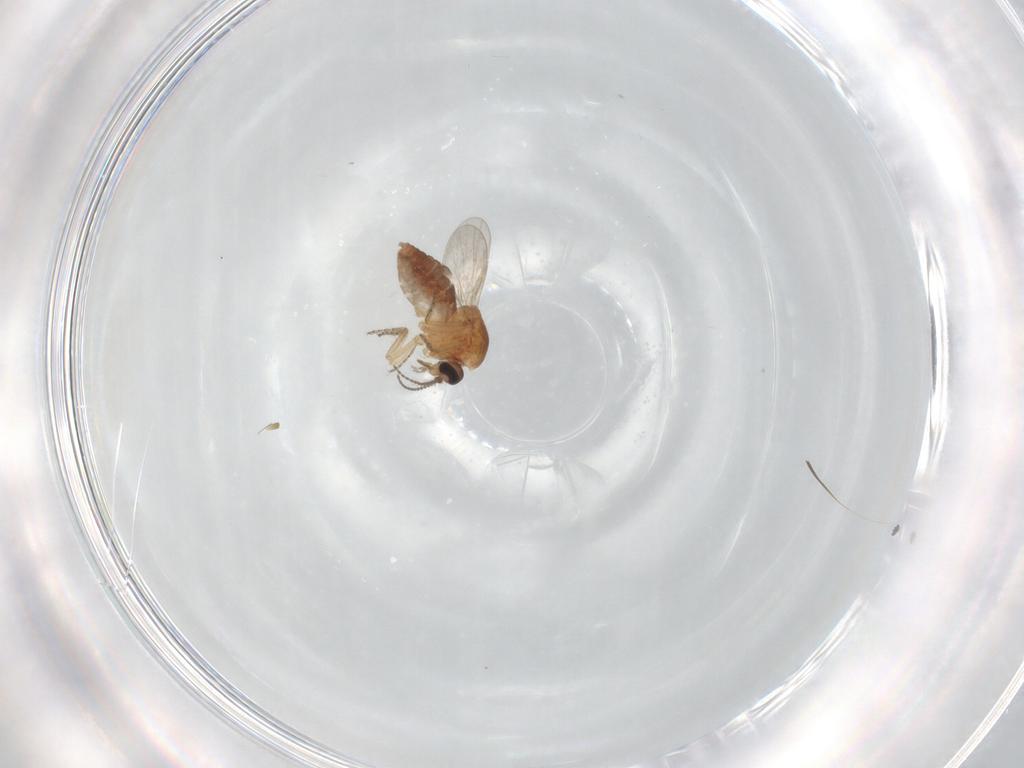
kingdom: Animalia
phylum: Arthropoda
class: Insecta
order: Diptera
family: Ceratopogonidae
